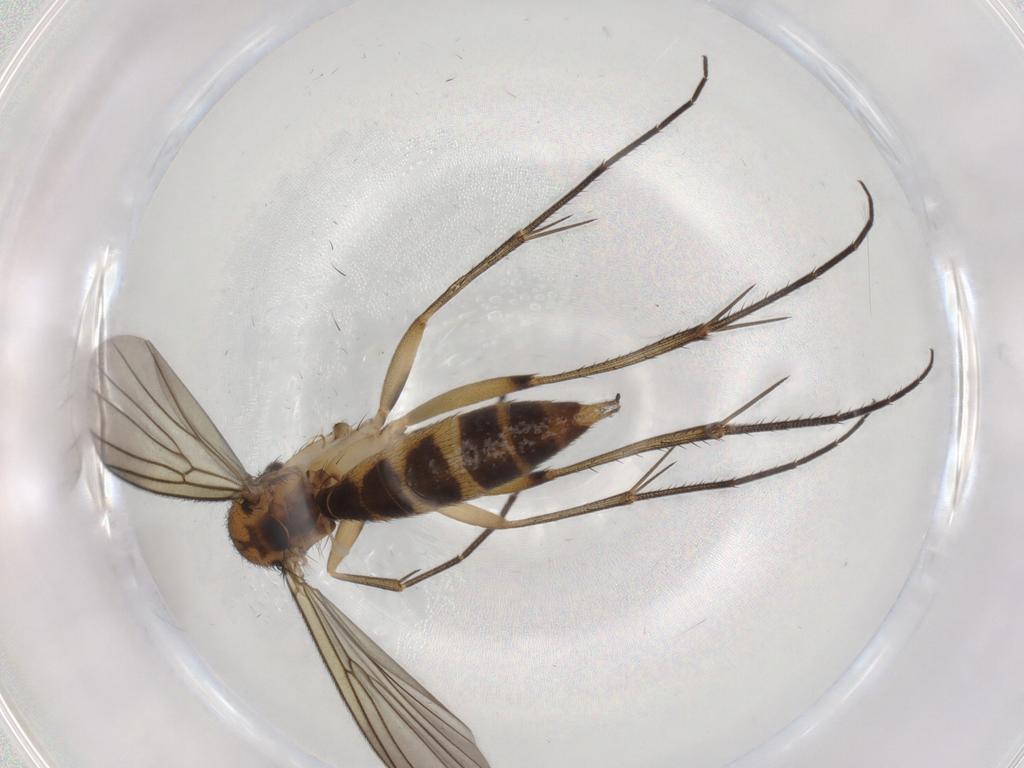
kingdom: Animalia
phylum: Arthropoda
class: Insecta
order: Diptera
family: Mycetophilidae
